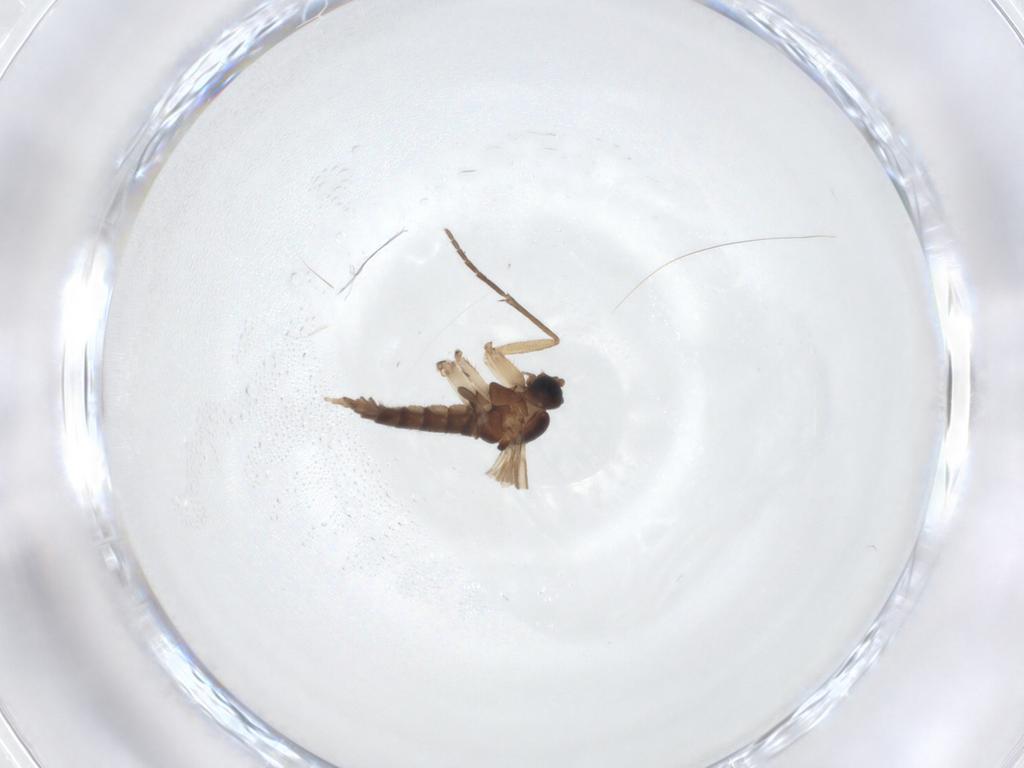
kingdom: Animalia
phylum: Arthropoda
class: Insecta
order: Diptera
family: Sciaridae
